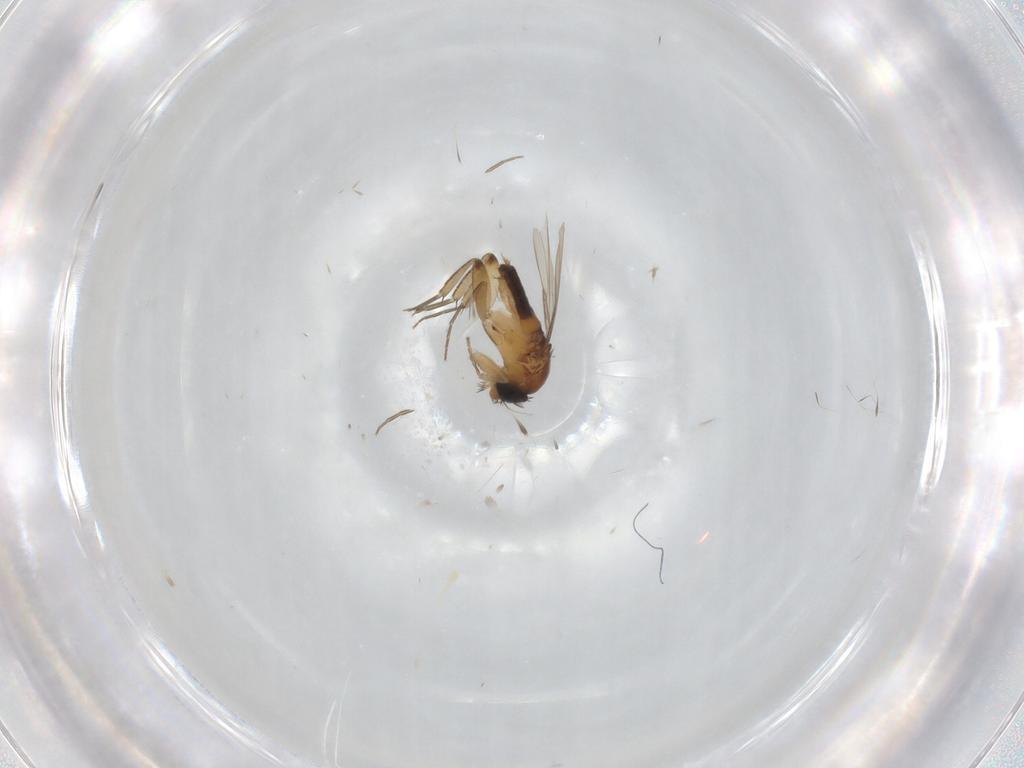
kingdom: Animalia
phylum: Arthropoda
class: Insecta
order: Diptera
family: Muscidae
